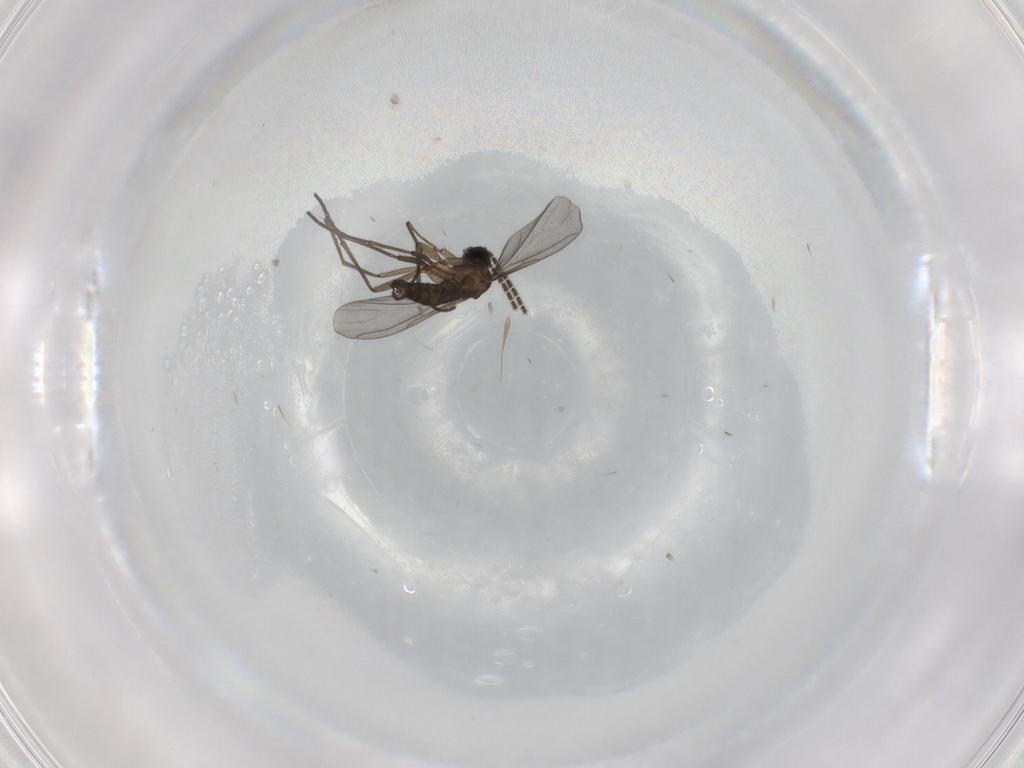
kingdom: Animalia
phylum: Arthropoda
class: Insecta
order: Diptera
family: Sciaridae
